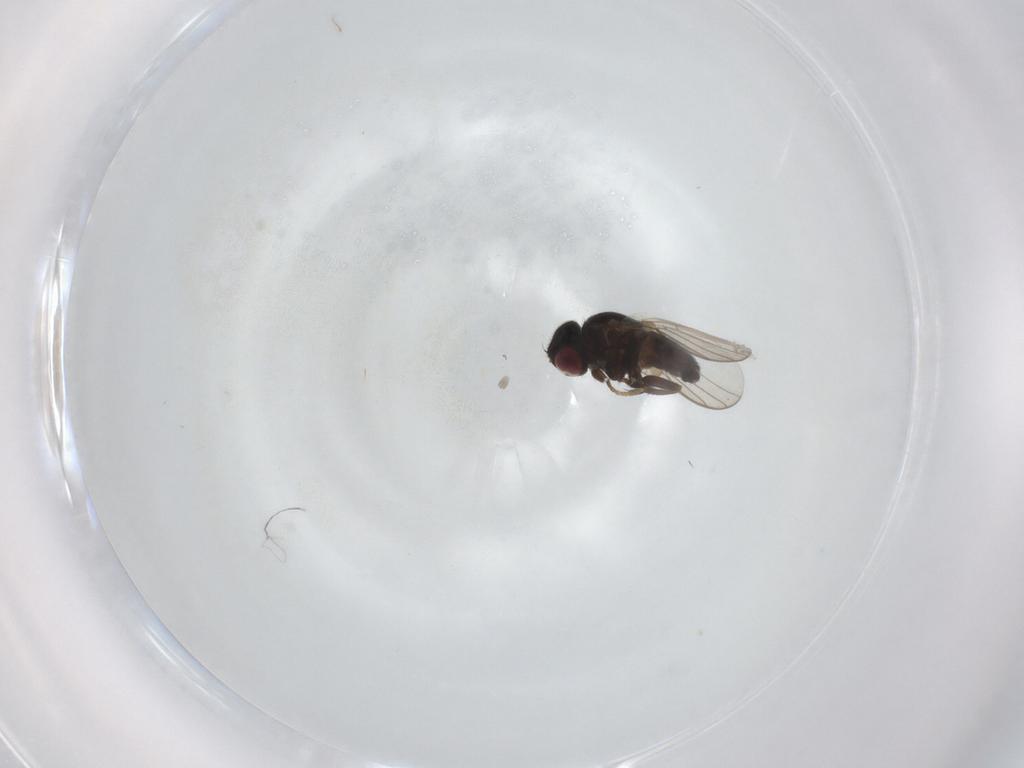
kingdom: Animalia
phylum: Arthropoda
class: Insecta
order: Diptera
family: Chloropidae
